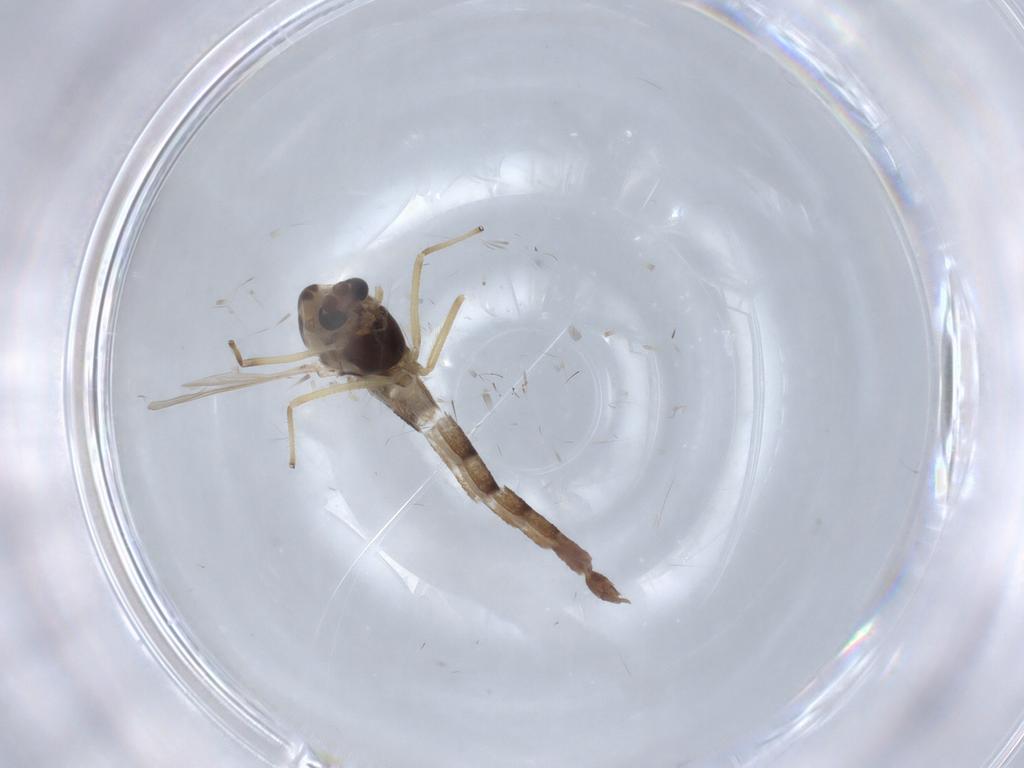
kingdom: Animalia
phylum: Arthropoda
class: Insecta
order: Diptera
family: Chironomidae
